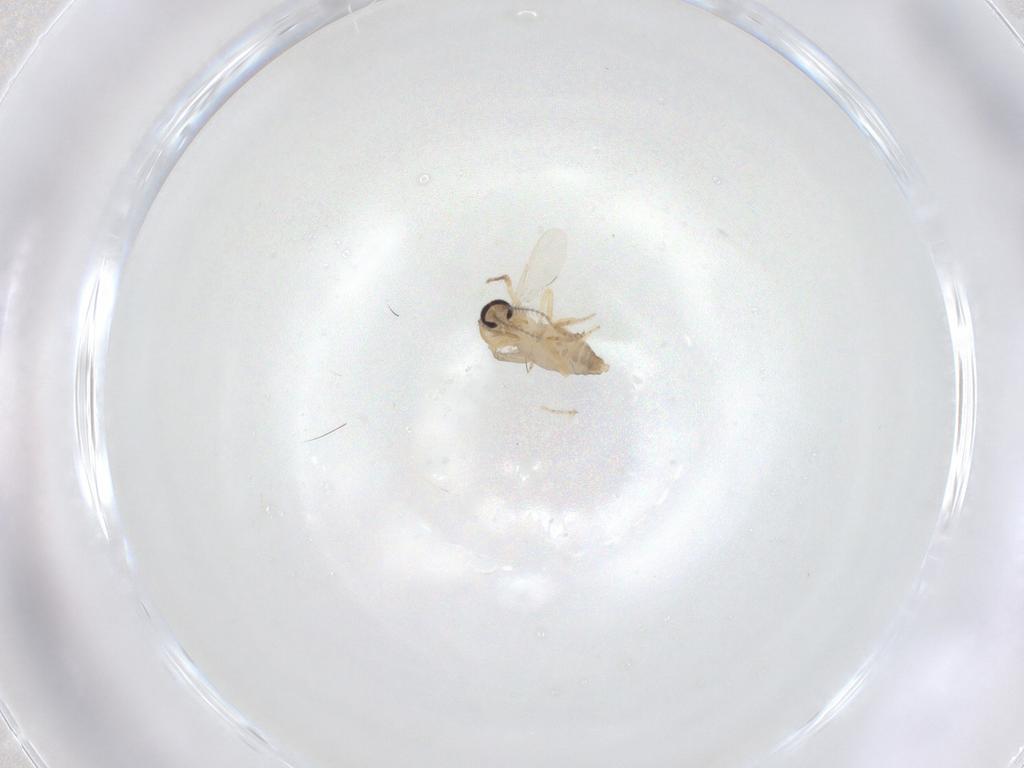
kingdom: Animalia
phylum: Arthropoda
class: Insecta
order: Diptera
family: Ceratopogonidae
